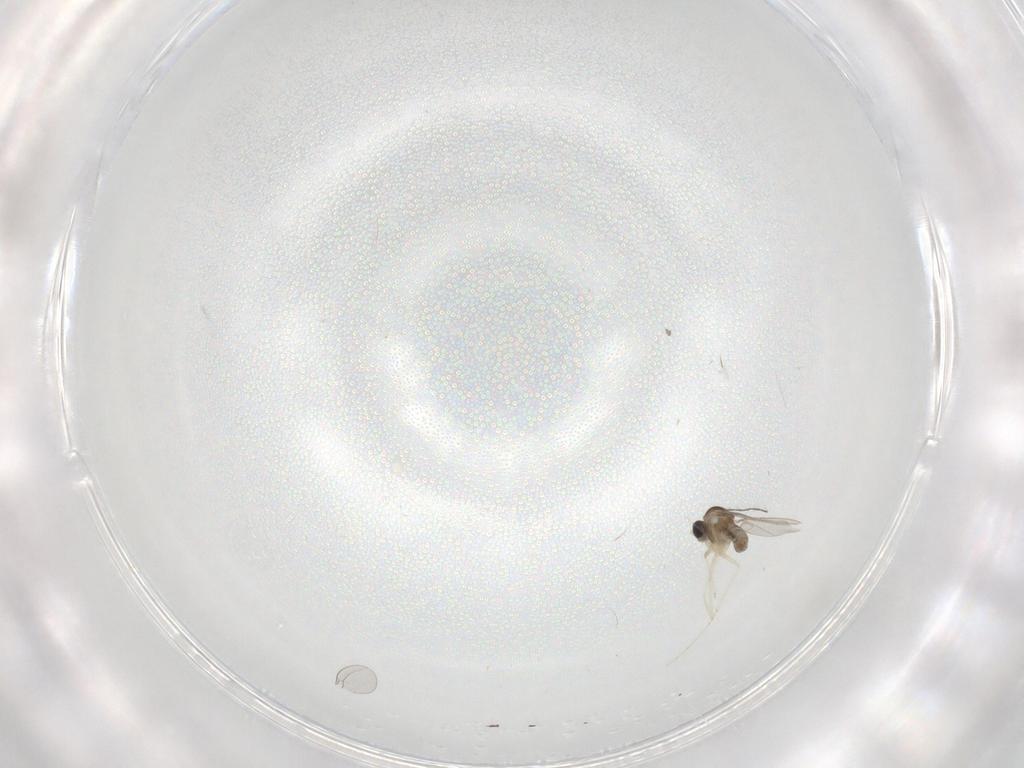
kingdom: Animalia
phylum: Arthropoda
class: Insecta
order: Diptera
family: Cecidomyiidae
